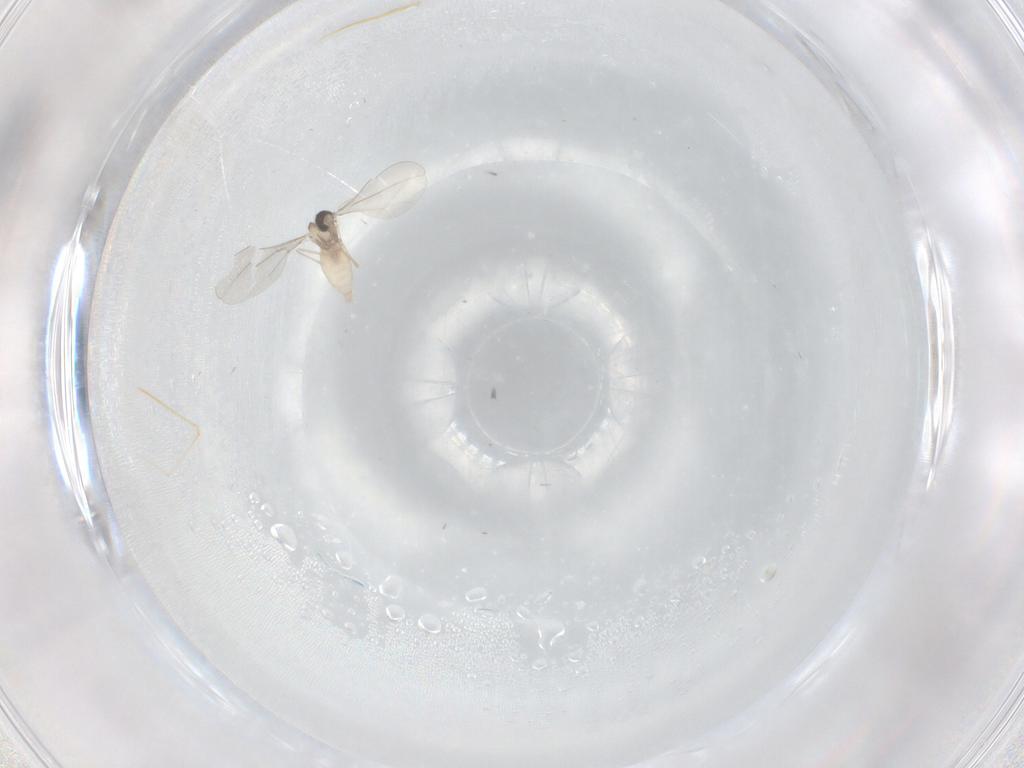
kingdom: Animalia
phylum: Arthropoda
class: Insecta
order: Diptera
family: Cecidomyiidae
